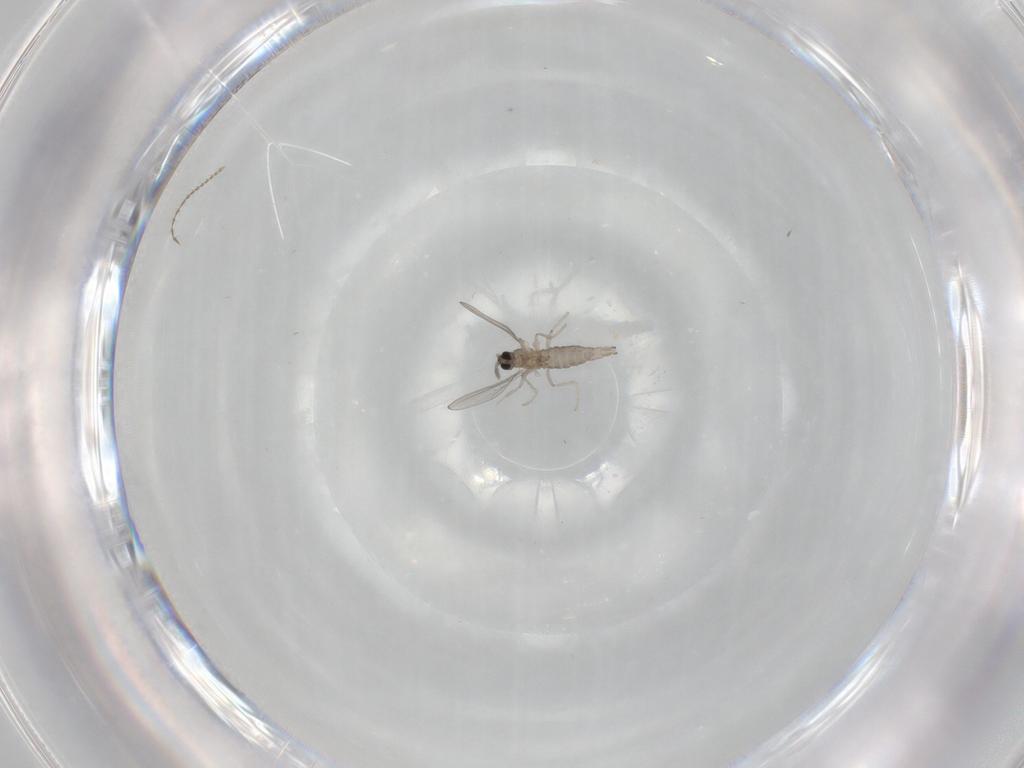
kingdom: Animalia
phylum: Arthropoda
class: Insecta
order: Diptera
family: Cecidomyiidae
